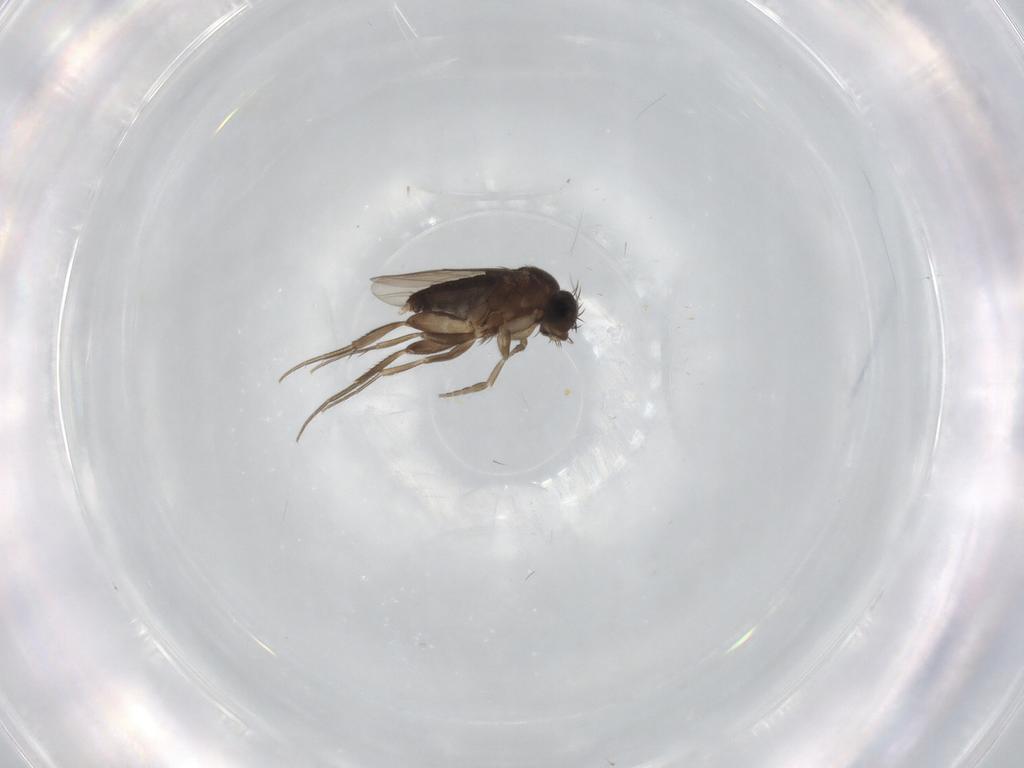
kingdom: Animalia
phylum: Arthropoda
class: Insecta
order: Diptera
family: Phoridae
